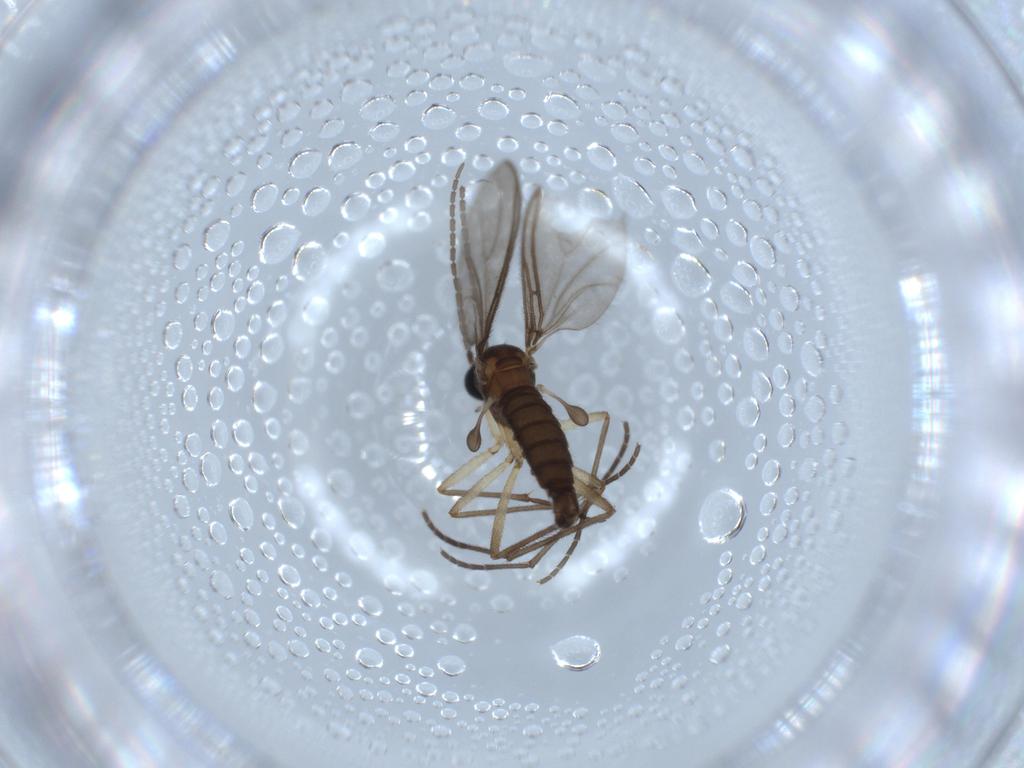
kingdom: Animalia
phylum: Arthropoda
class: Insecta
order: Diptera
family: Sciaridae
